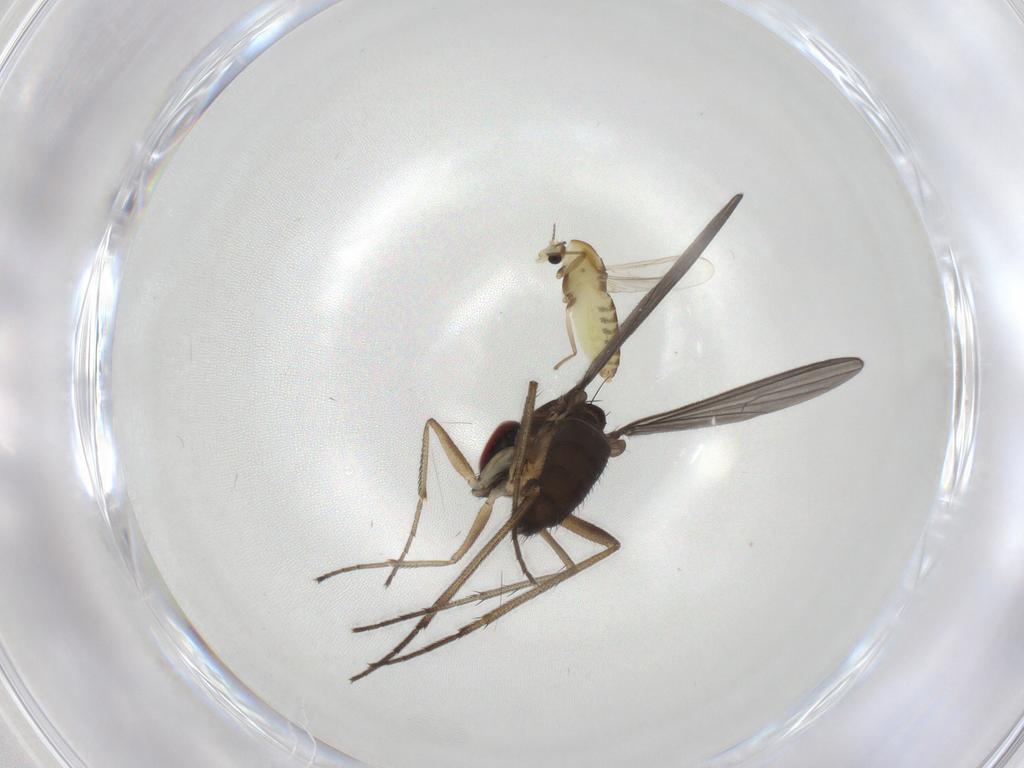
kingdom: Animalia
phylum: Arthropoda
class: Insecta
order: Diptera
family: Chironomidae
